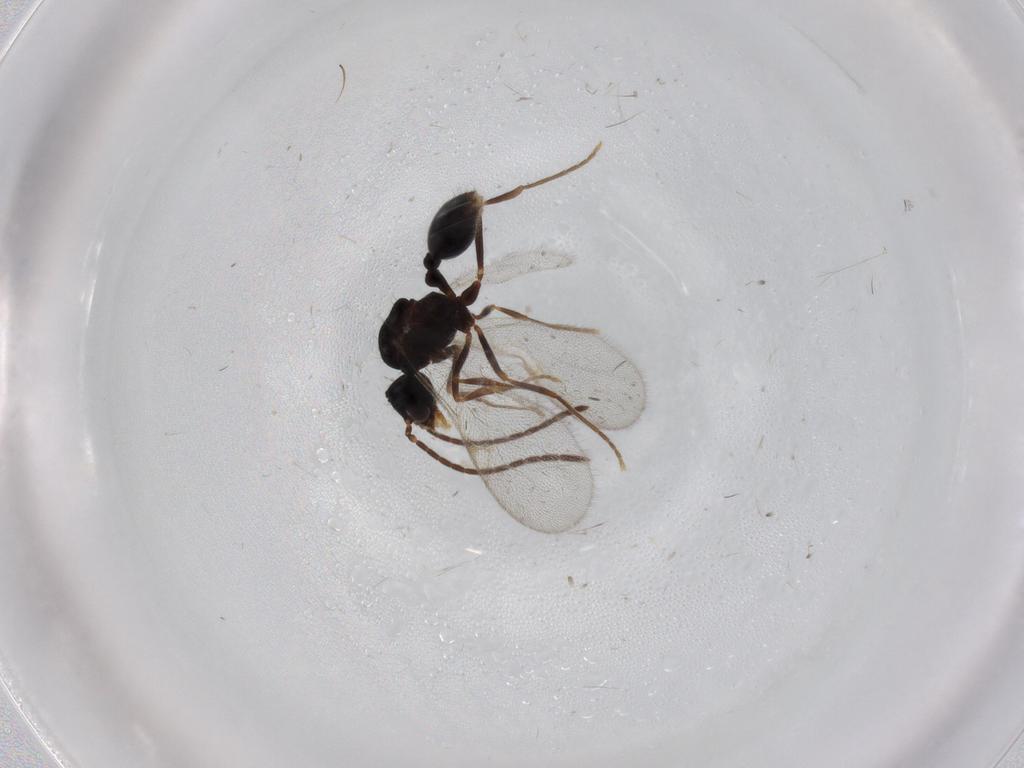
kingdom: Animalia
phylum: Arthropoda
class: Insecta
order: Hymenoptera
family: Formicidae
